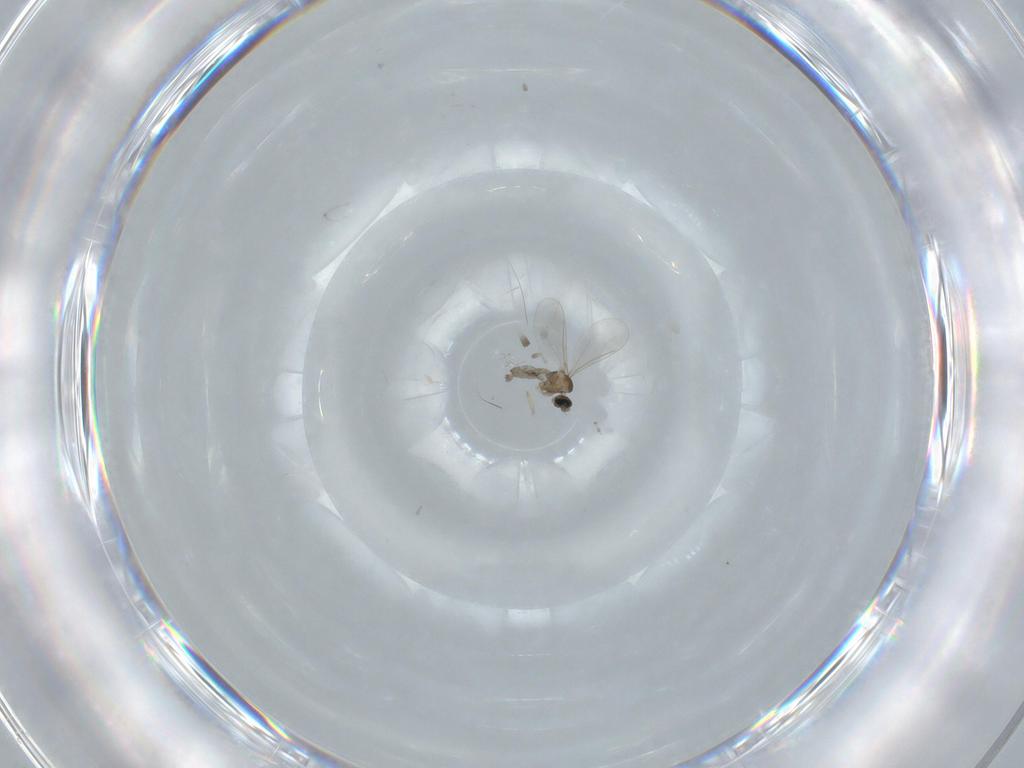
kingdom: Animalia
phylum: Arthropoda
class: Insecta
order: Diptera
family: Cecidomyiidae
